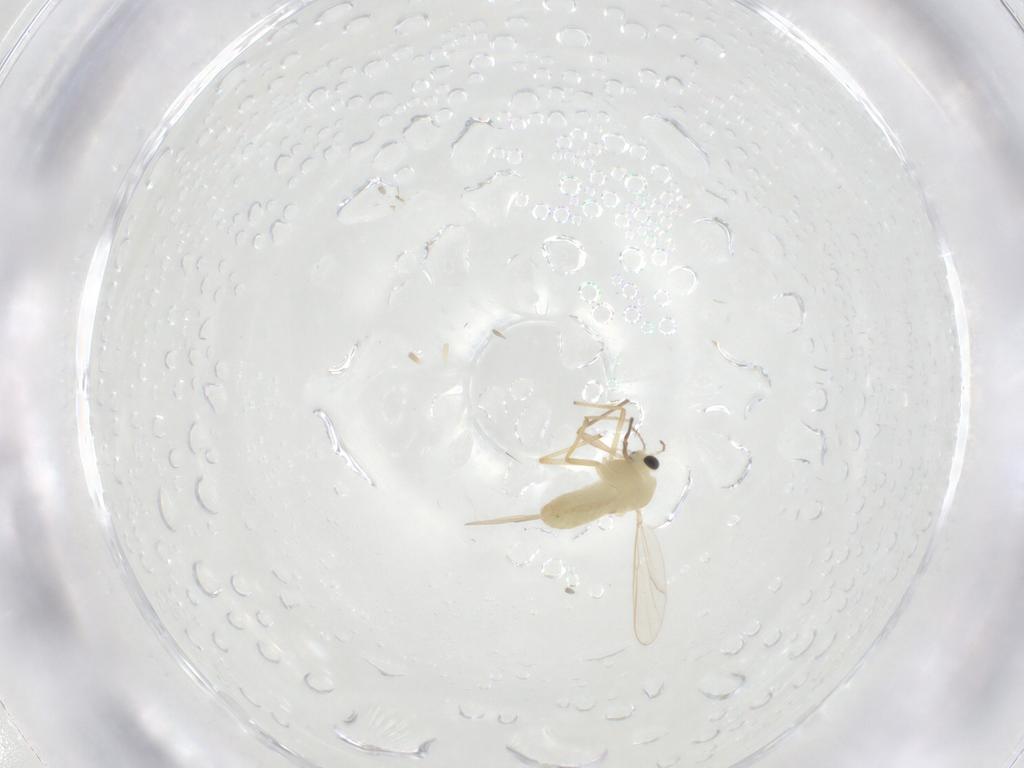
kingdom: Animalia
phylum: Arthropoda
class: Insecta
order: Diptera
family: Chironomidae
